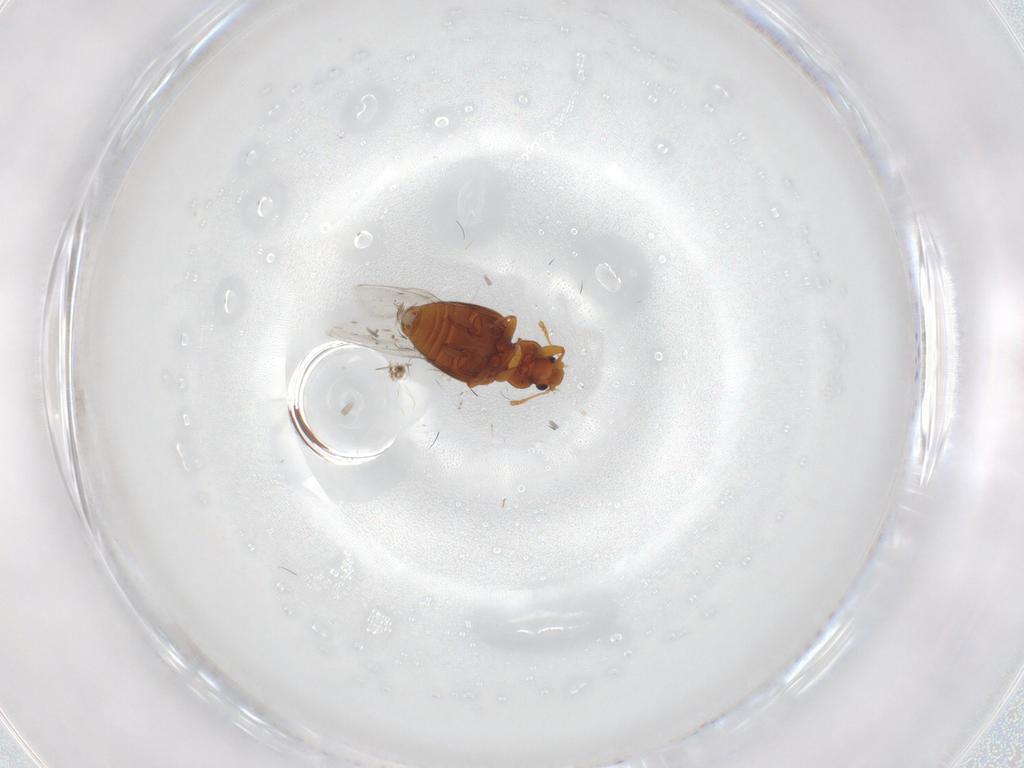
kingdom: Animalia
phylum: Arthropoda
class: Insecta
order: Coleoptera
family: Latridiidae
